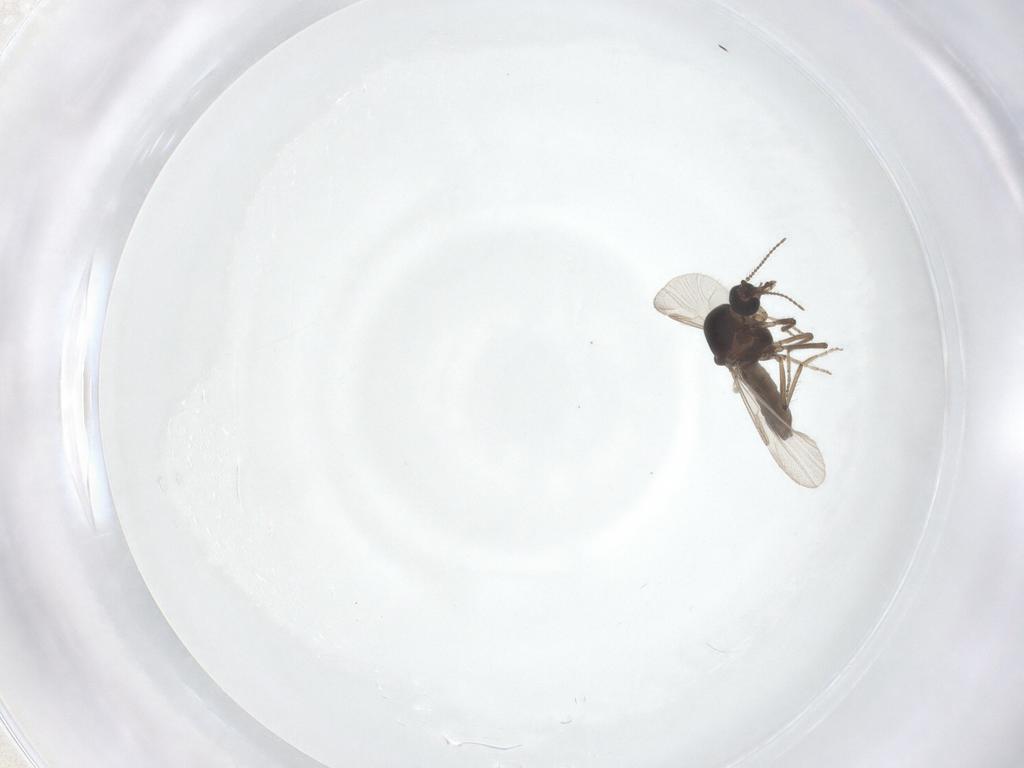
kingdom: Animalia
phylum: Arthropoda
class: Insecta
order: Diptera
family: Ceratopogonidae
